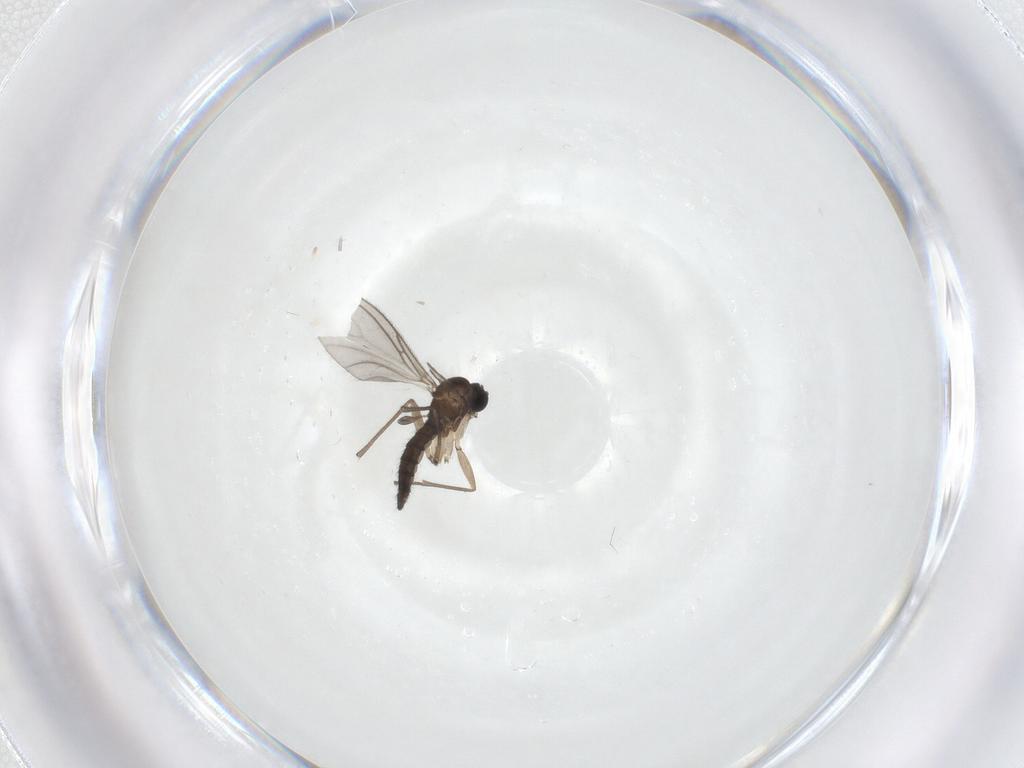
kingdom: Animalia
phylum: Arthropoda
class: Insecta
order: Diptera
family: Sciaridae
